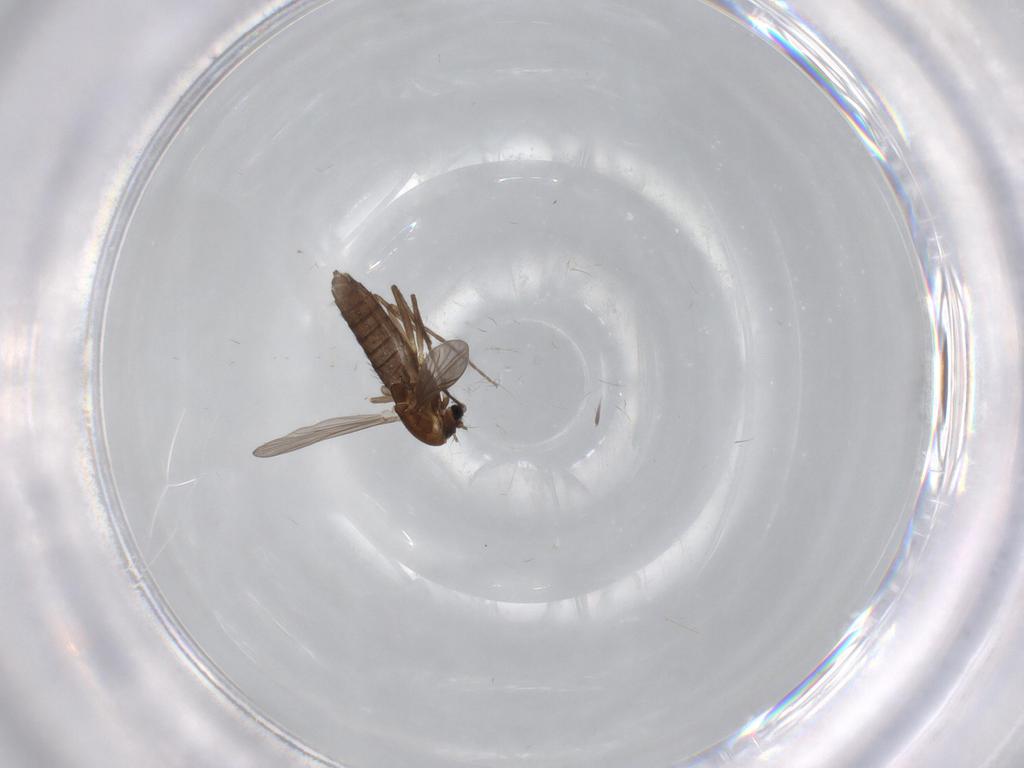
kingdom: Animalia
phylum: Arthropoda
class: Insecta
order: Diptera
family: Chironomidae
